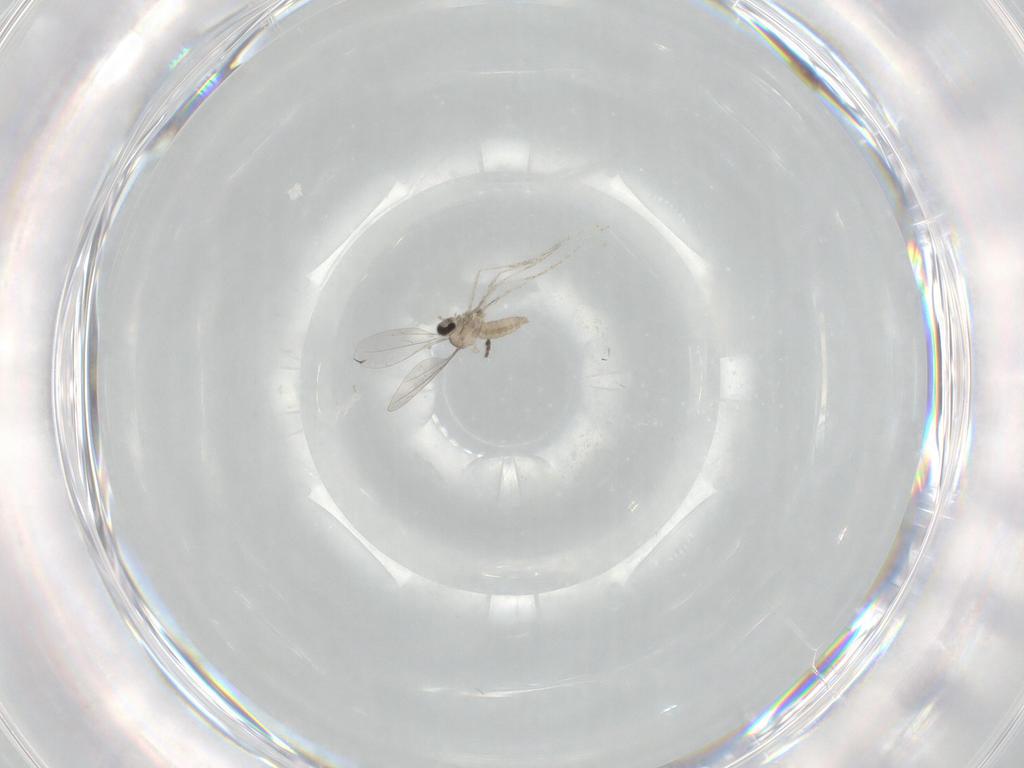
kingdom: Animalia
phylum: Arthropoda
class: Insecta
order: Diptera
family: Cecidomyiidae
